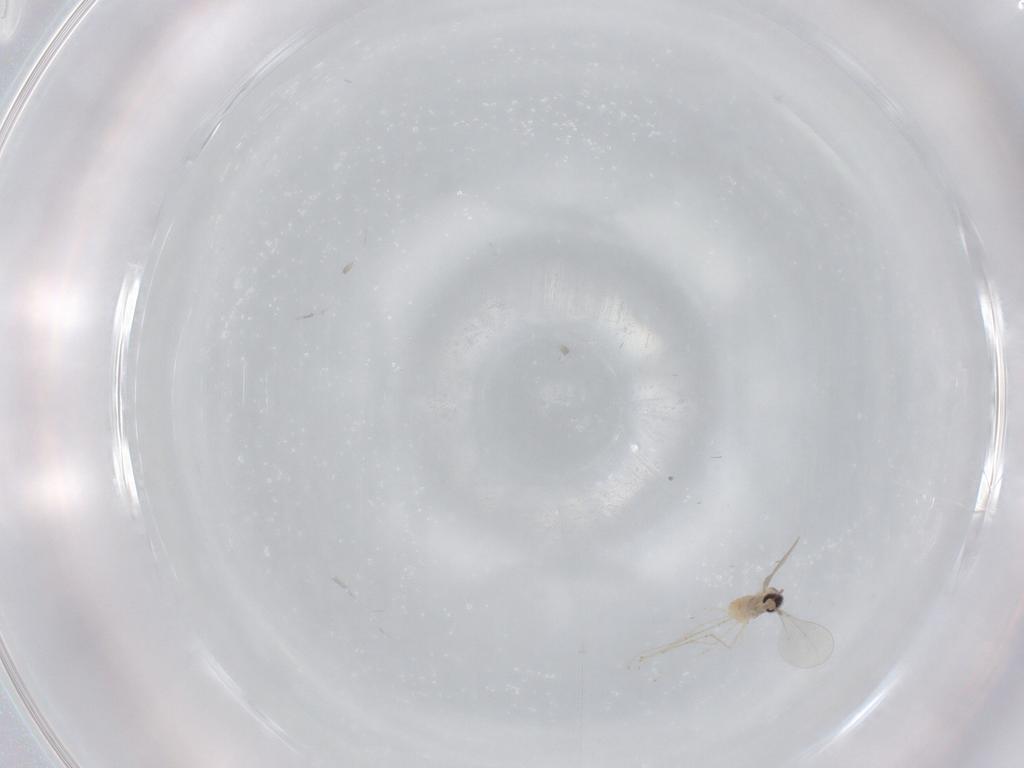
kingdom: Animalia
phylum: Arthropoda
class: Insecta
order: Diptera
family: Cecidomyiidae
